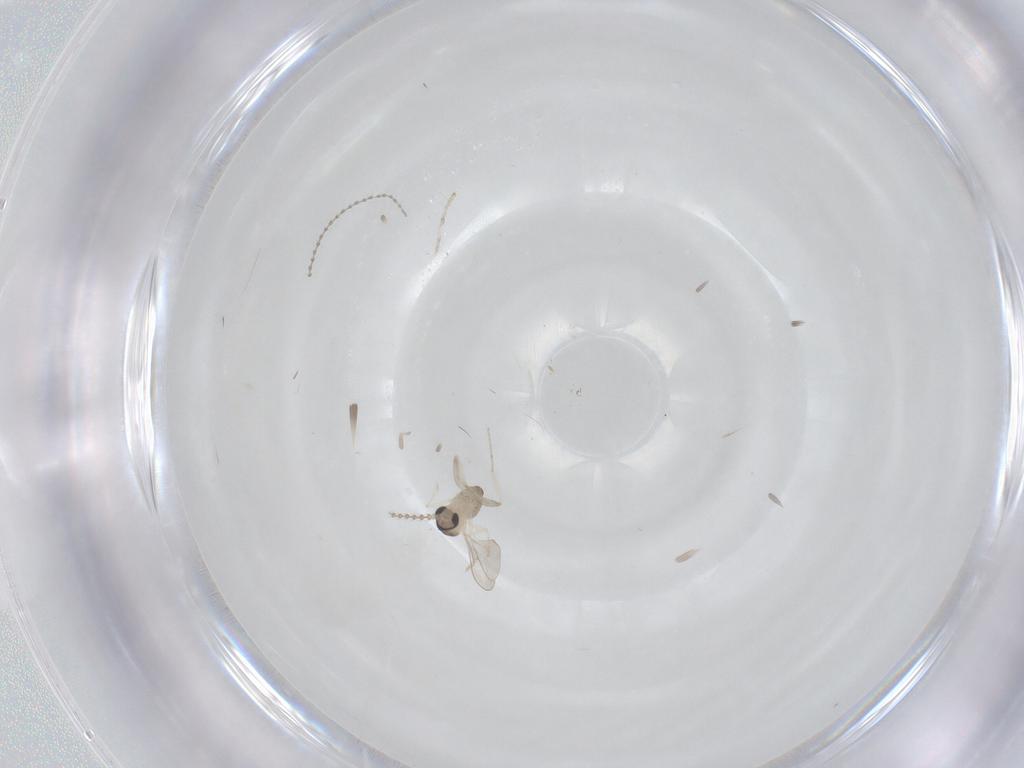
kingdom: Animalia
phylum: Arthropoda
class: Insecta
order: Diptera
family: Cecidomyiidae
